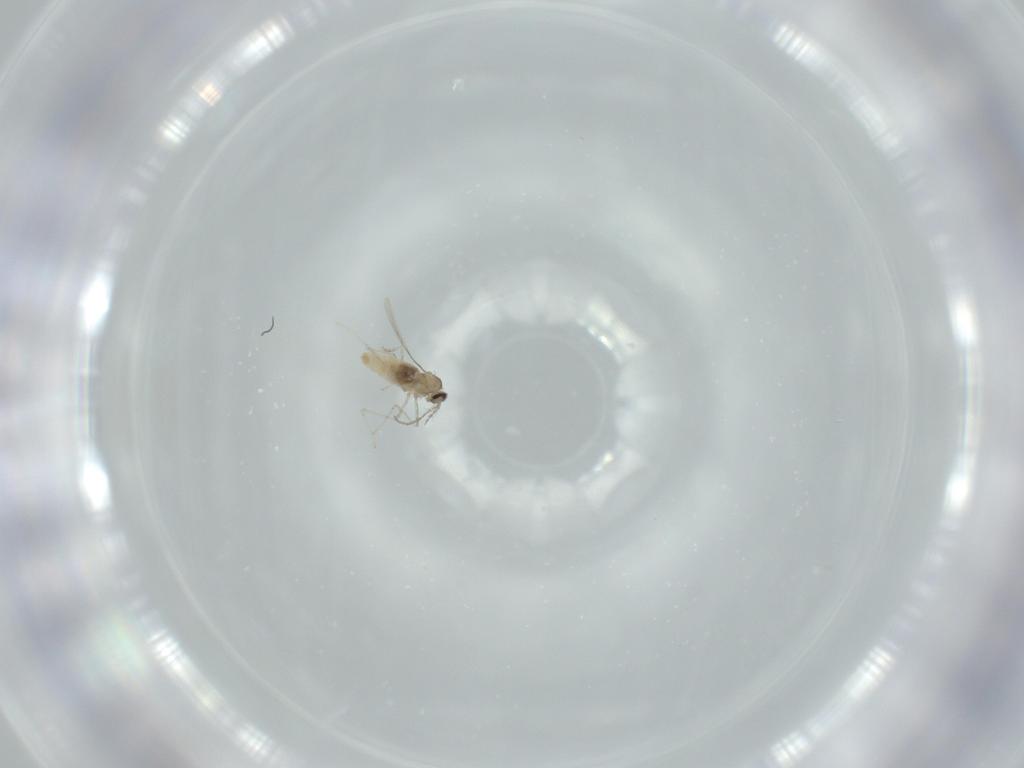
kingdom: Animalia
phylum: Arthropoda
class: Insecta
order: Diptera
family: Cecidomyiidae
